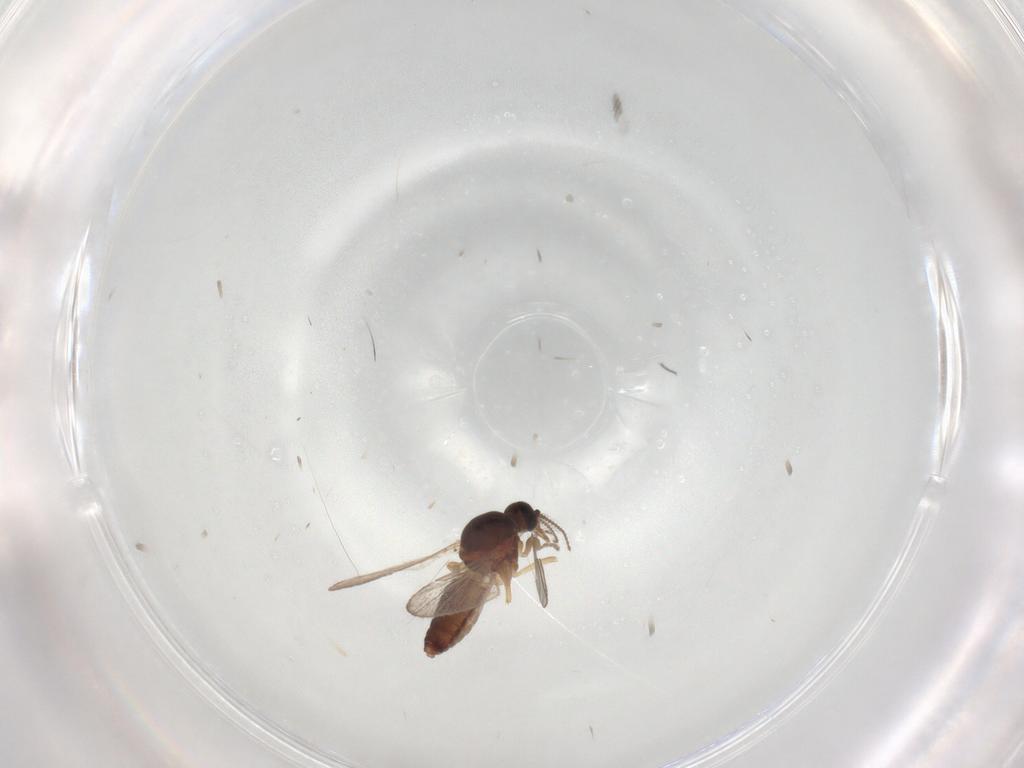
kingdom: Animalia
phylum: Arthropoda
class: Insecta
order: Diptera
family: Ceratopogonidae
